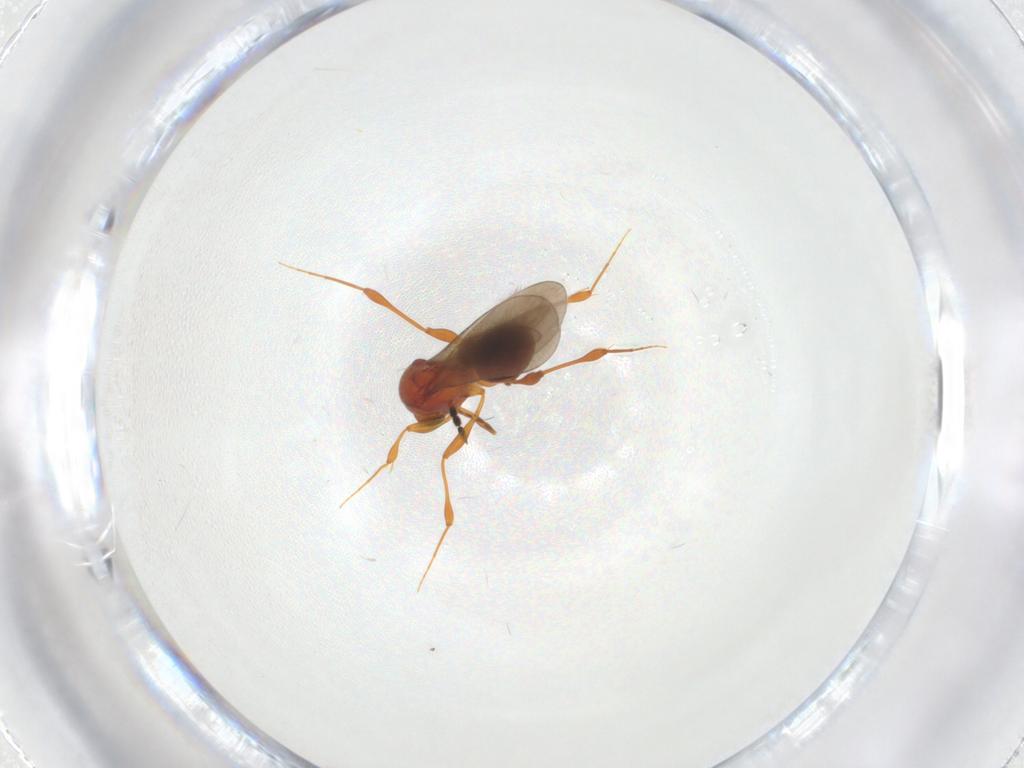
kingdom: Animalia
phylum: Arthropoda
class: Insecta
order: Hymenoptera
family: Platygastridae
